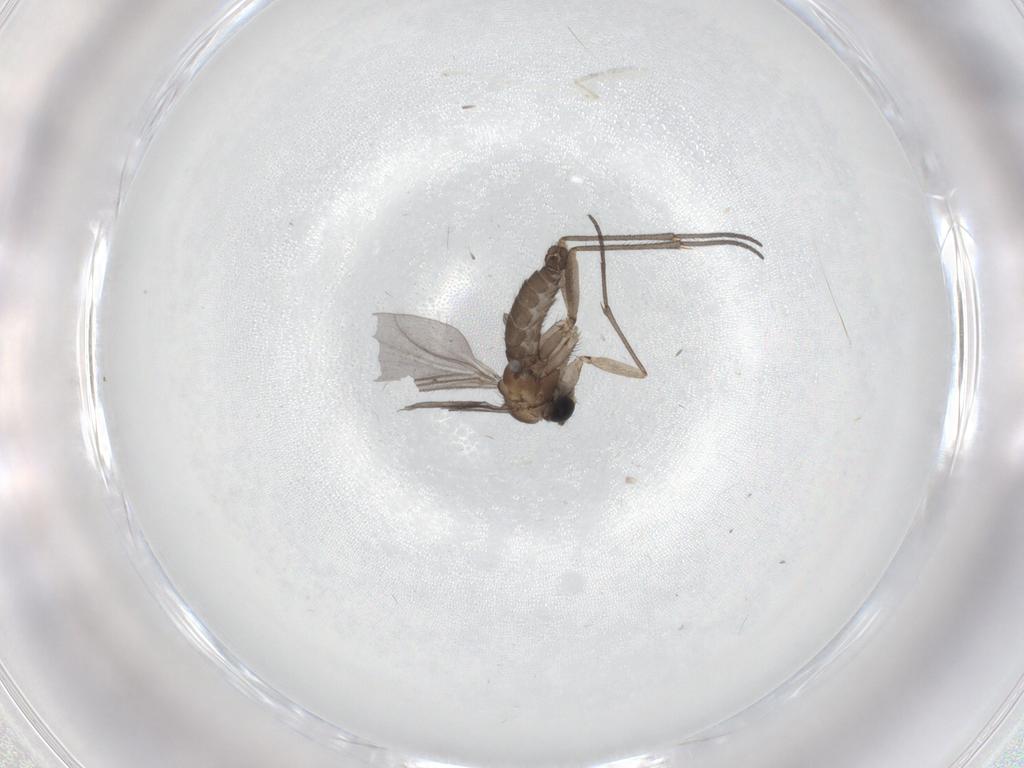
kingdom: Animalia
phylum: Arthropoda
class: Insecta
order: Diptera
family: Sciaridae
